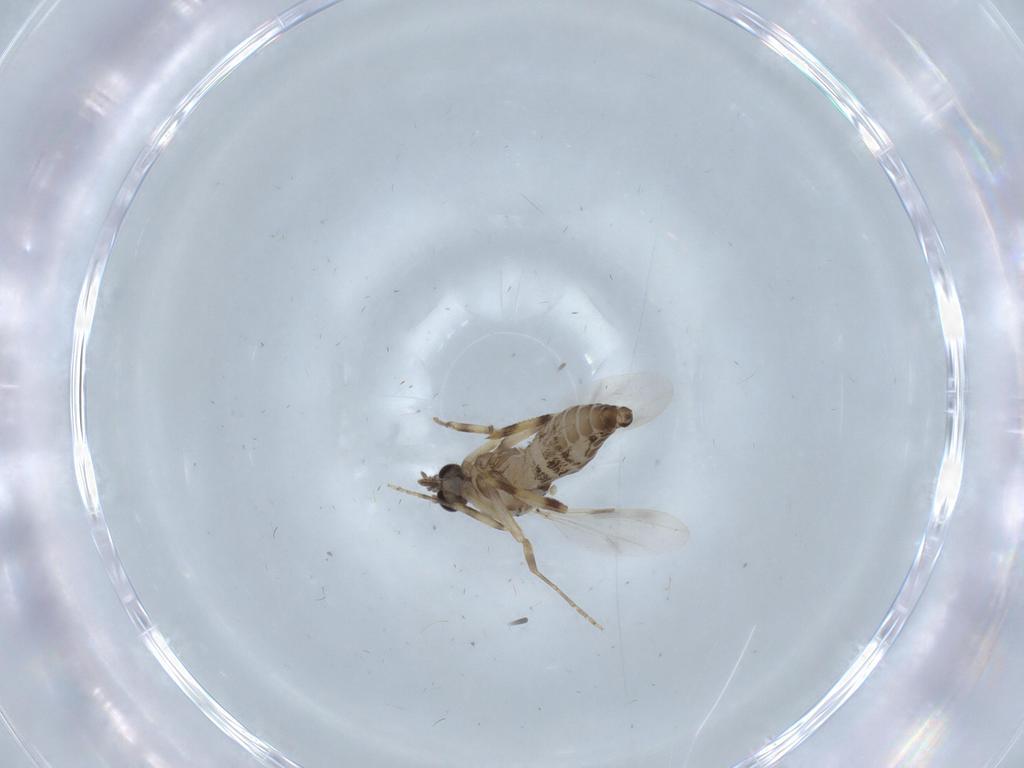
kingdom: Animalia
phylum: Arthropoda
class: Insecta
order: Diptera
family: Ceratopogonidae
